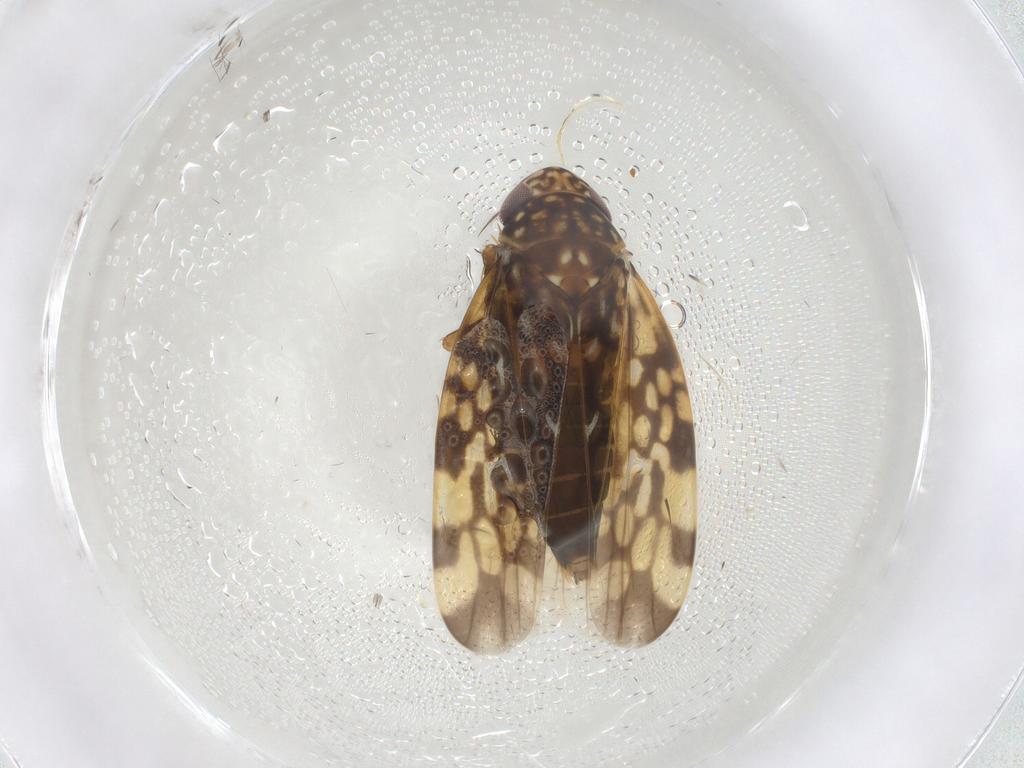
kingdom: Animalia
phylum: Arthropoda
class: Insecta
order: Hemiptera
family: Cicadellidae
